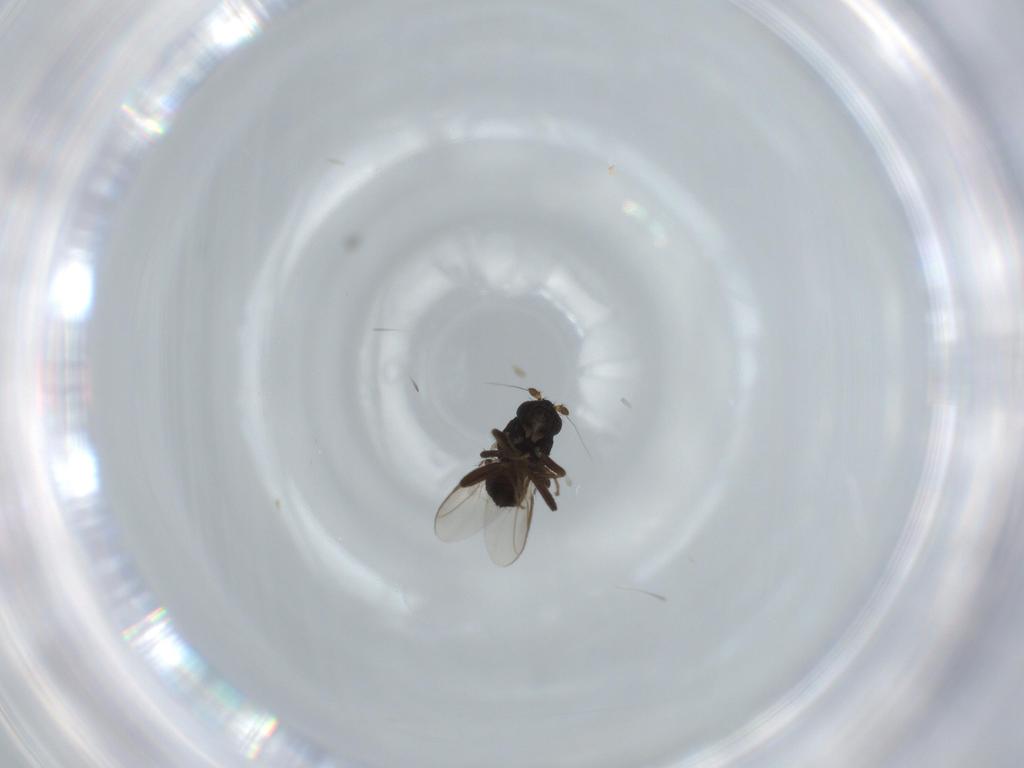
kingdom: Animalia
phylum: Arthropoda
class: Insecta
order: Diptera
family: Sphaeroceridae
